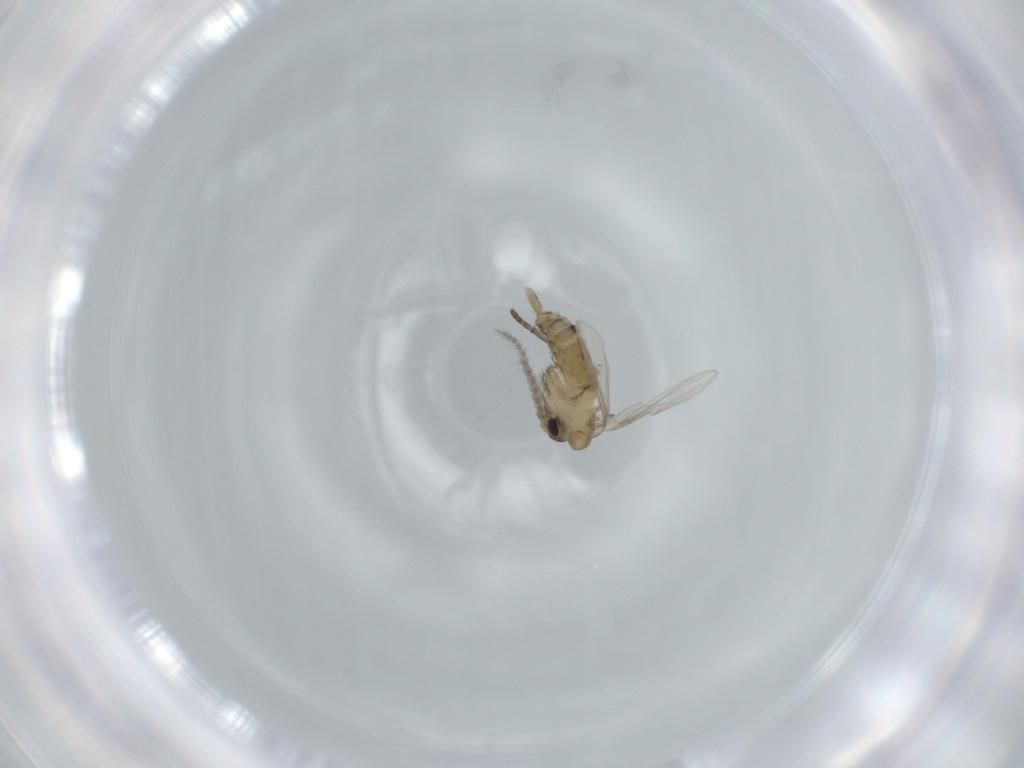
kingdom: Animalia
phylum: Arthropoda
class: Insecta
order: Diptera
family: Psychodidae
